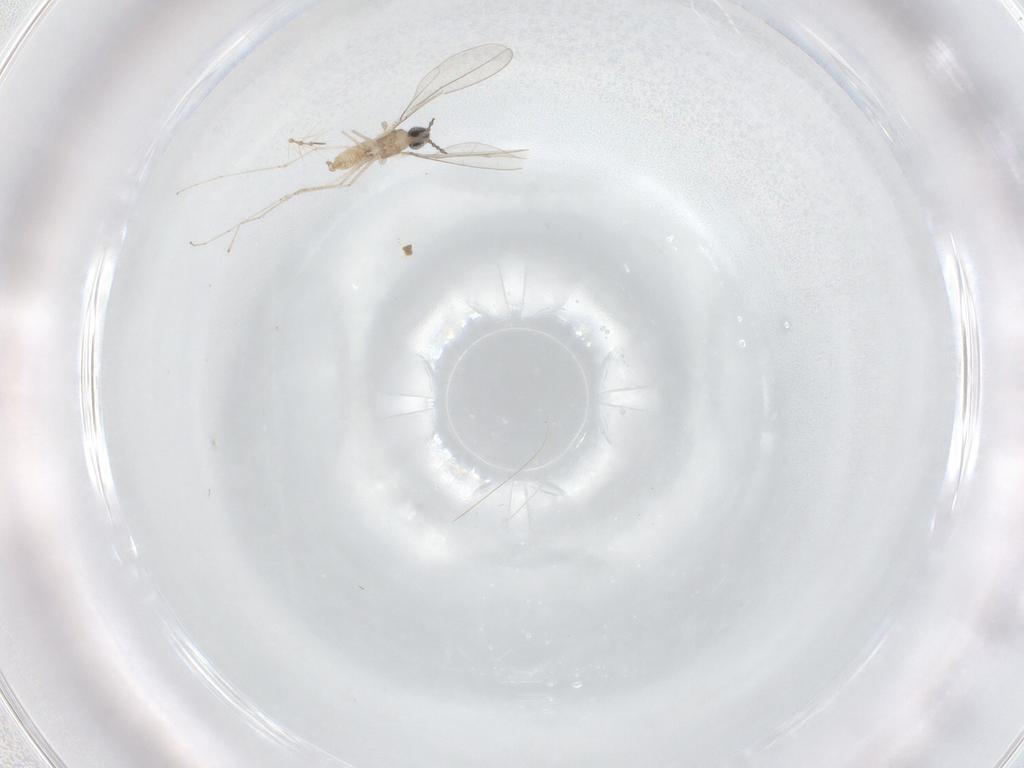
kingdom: Animalia
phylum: Arthropoda
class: Insecta
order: Diptera
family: Chironomidae
